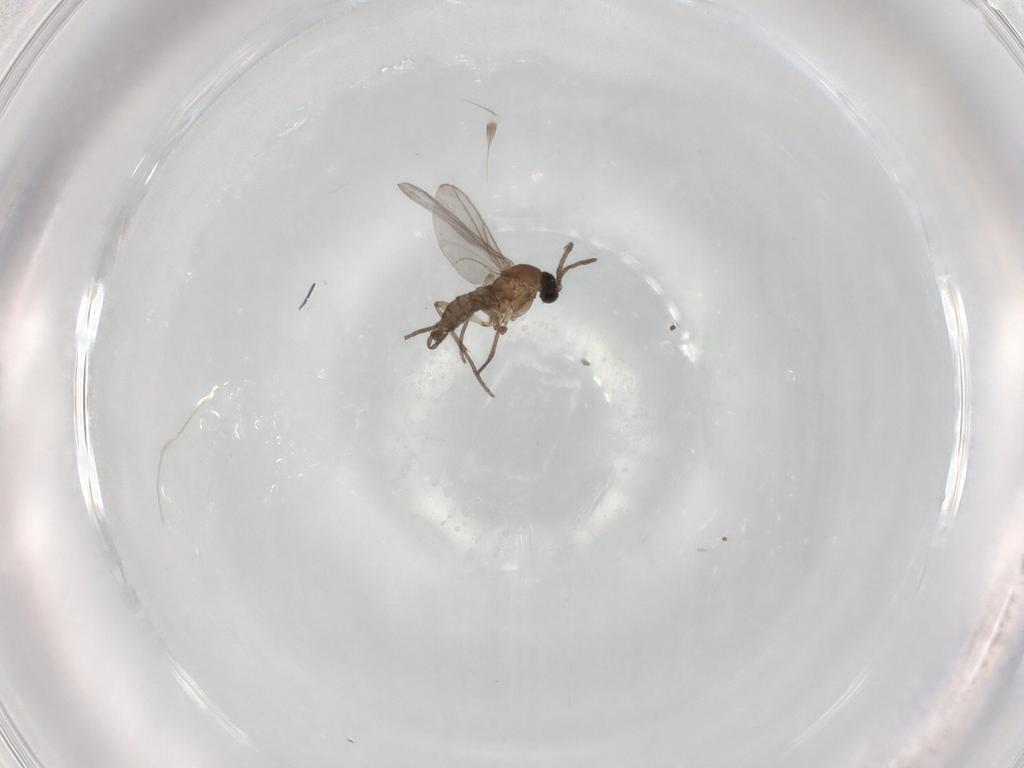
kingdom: Animalia
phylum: Arthropoda
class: Insecta
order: Diptera
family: Sciaridae
